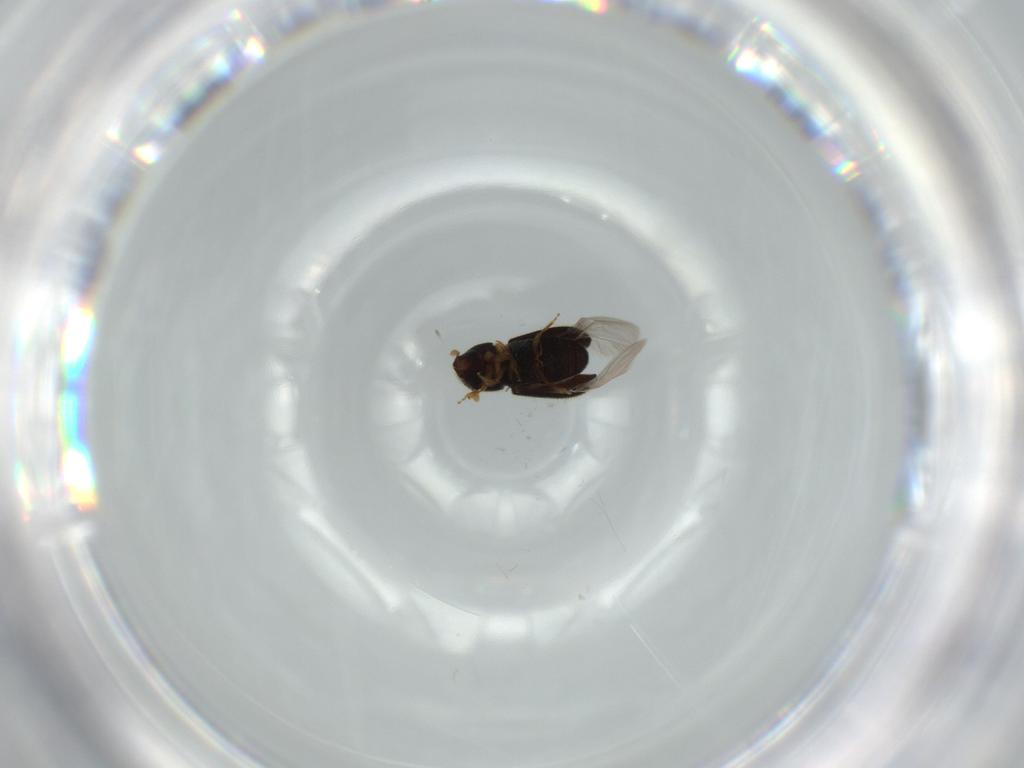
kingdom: Animalia
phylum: Arthropoda
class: Insecta
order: Coleoptera
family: Curculionidae
